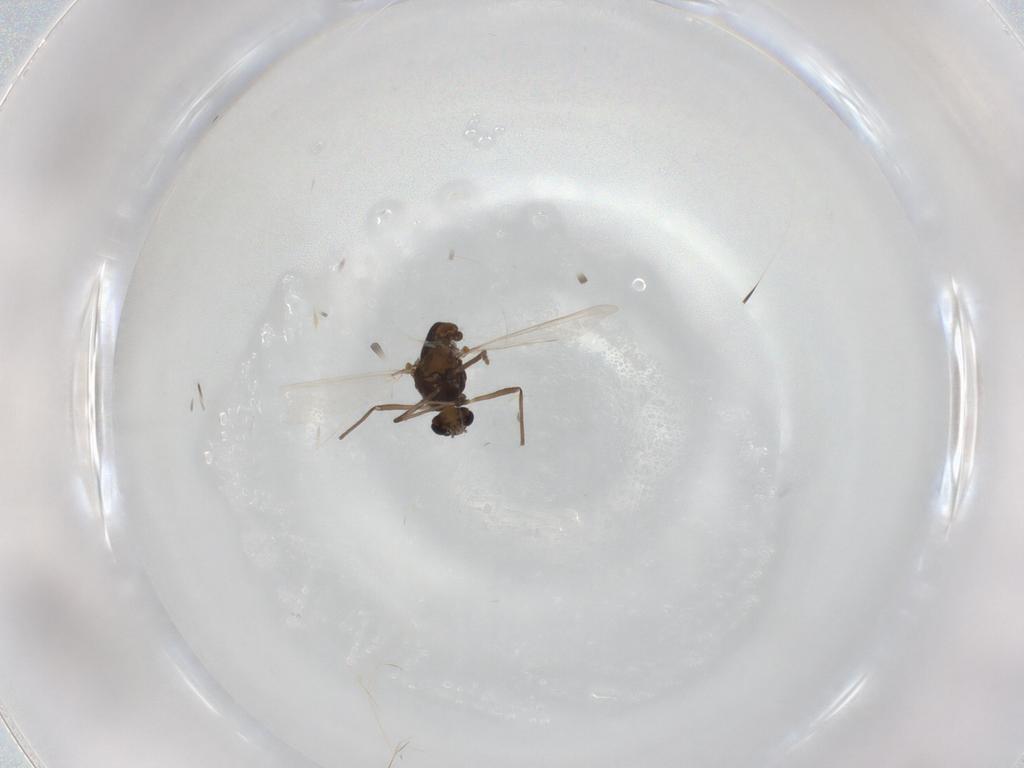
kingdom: Animalia
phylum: Arthropoda
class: Insecta
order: Diptera
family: Chironomidae
